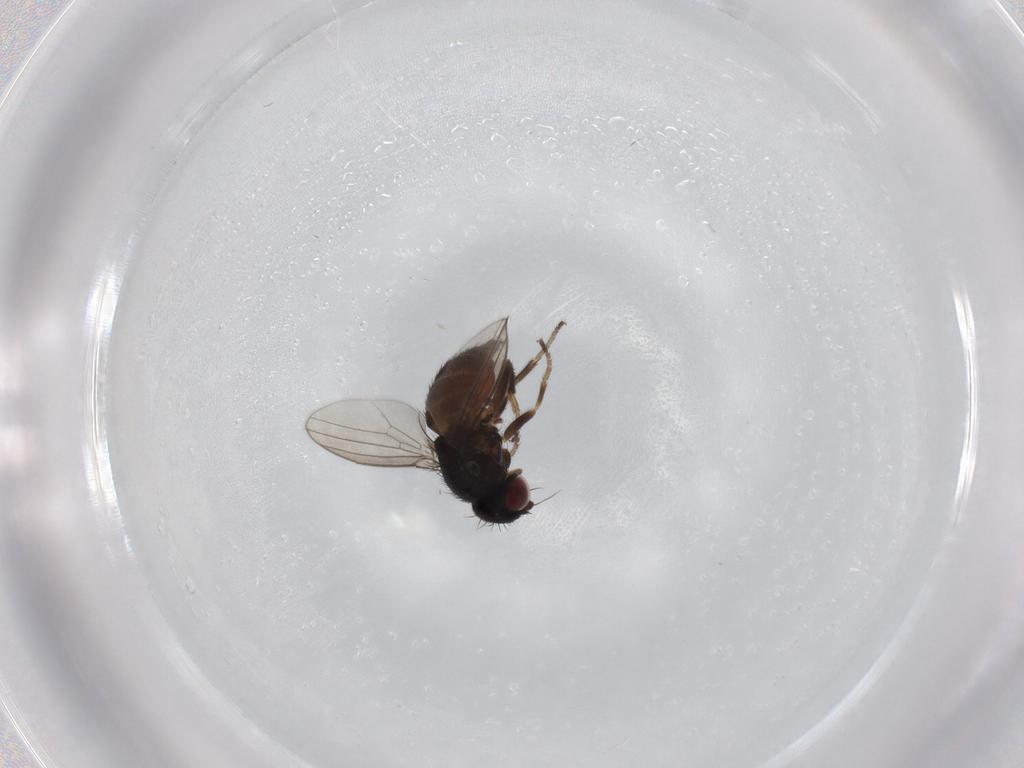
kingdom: Animalia
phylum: Arthropoda
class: Insecta
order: Diptera
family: Milichiidae
